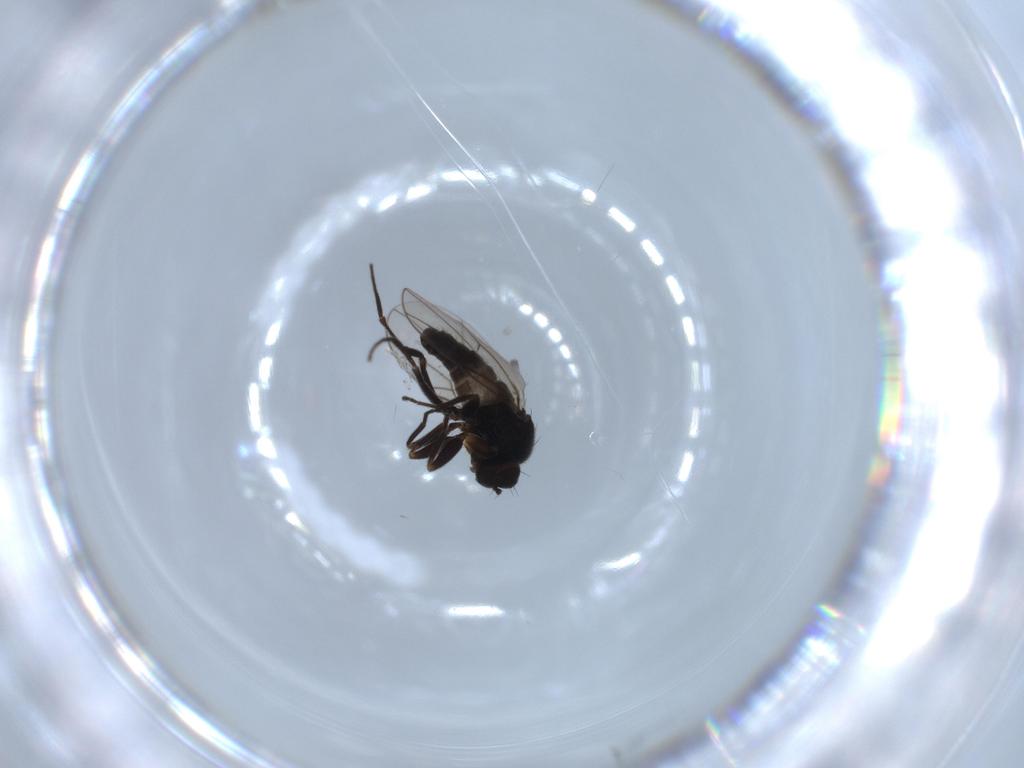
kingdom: Animalia
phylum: Arthropoda
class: Insecta
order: Diptera
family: Hybotidae
